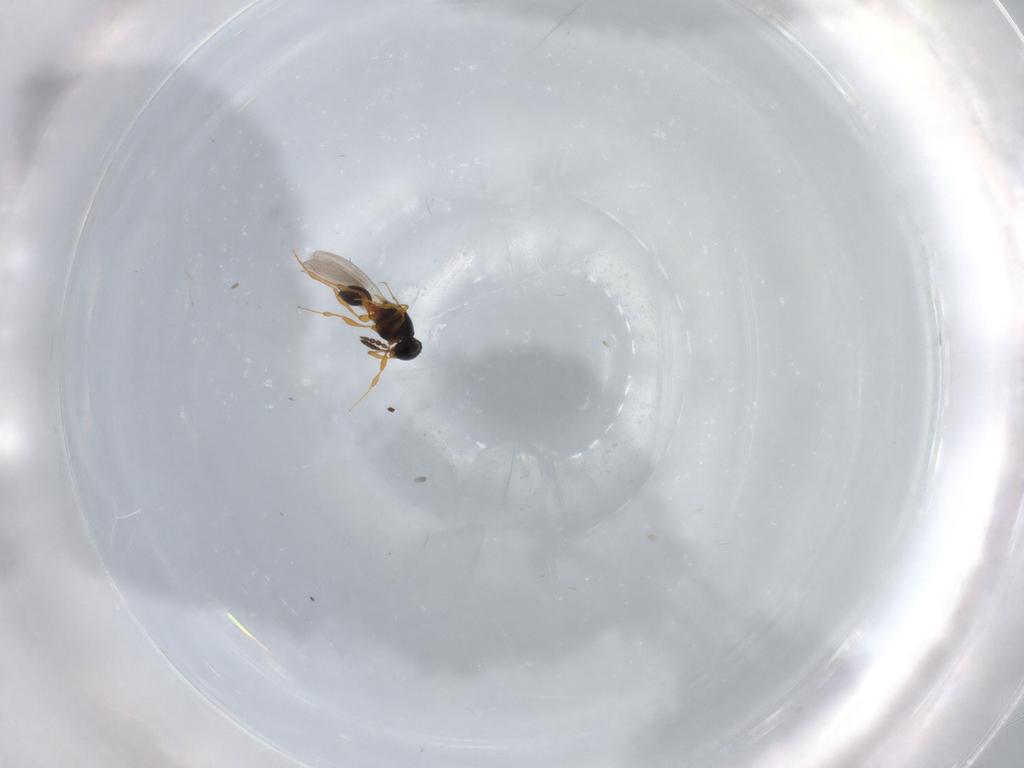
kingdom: Animalia
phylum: Arthropoda
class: Insecta
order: Hymenoptera
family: Platygastridae
